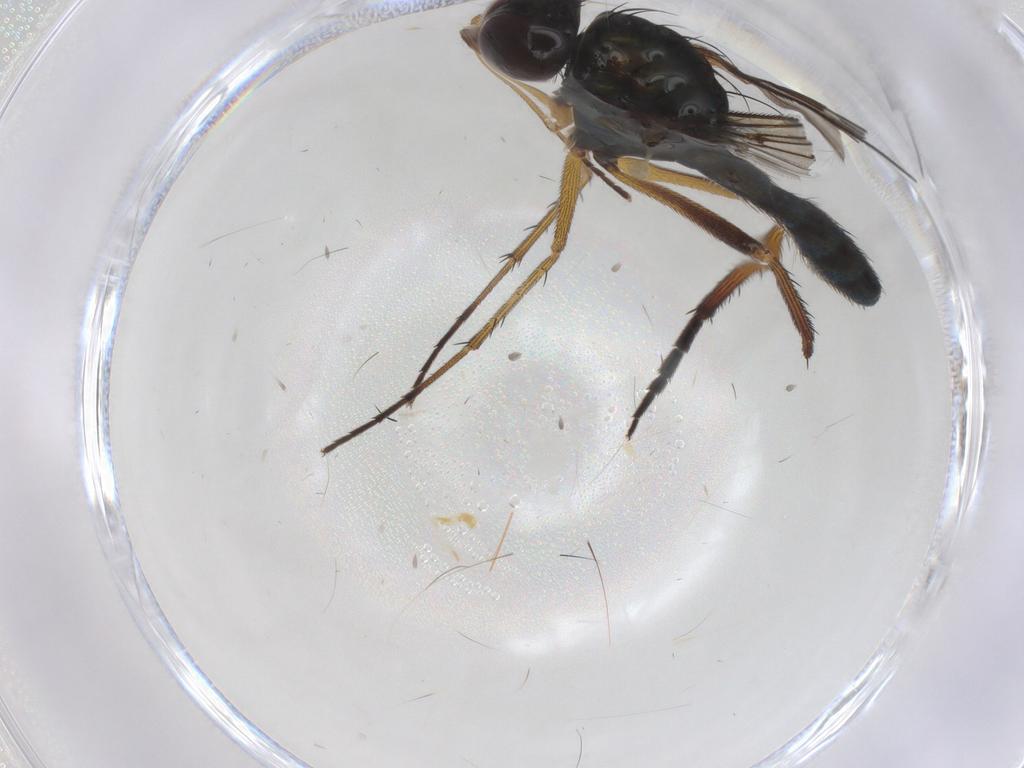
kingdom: Animalia
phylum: Arthropoda
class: Insecta
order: Diptera
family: Dolichopodidae
